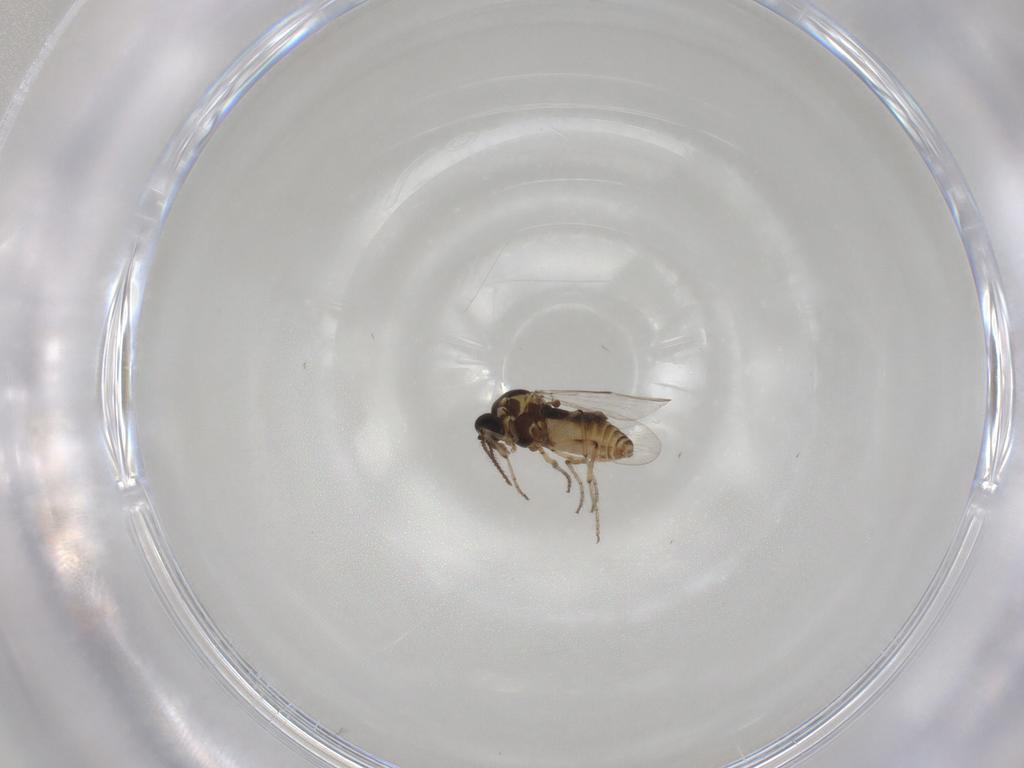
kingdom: Animalia
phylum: Arthropoda
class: Insecta
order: Diptera
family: Ceratopogonidae
